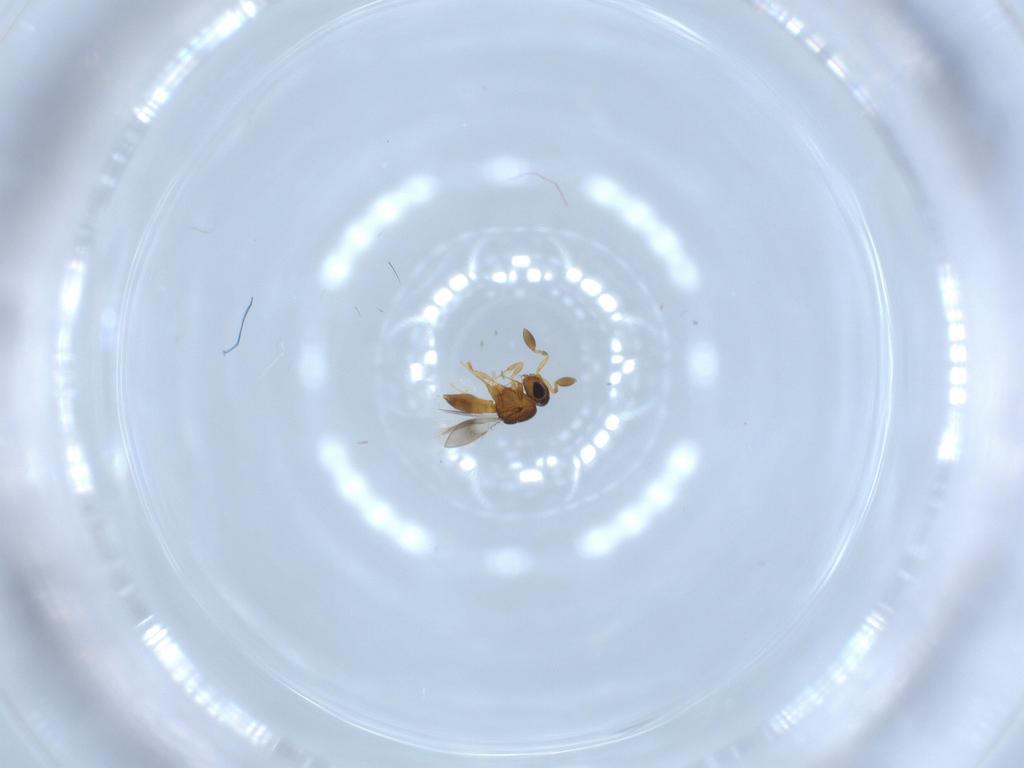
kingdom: Animalia
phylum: Arthropoda
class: Insecta
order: Hymenoptera
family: Scelionidae
